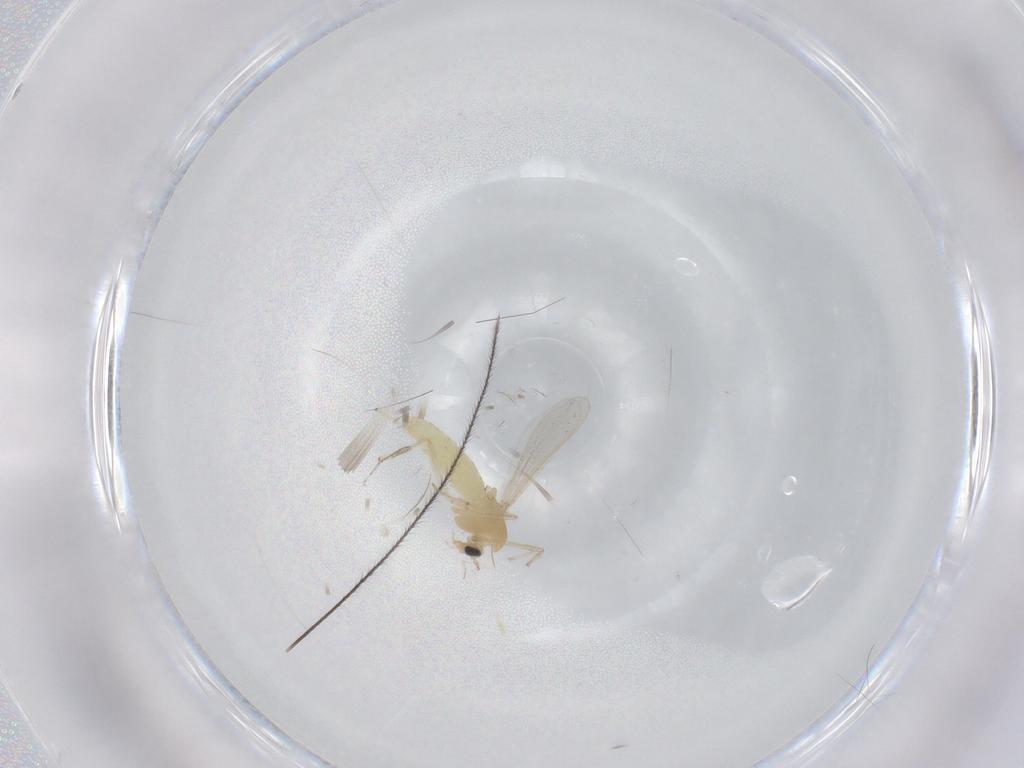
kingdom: Animalia
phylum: Arthropoda
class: Insecta
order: Diptera
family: Chironomidae
